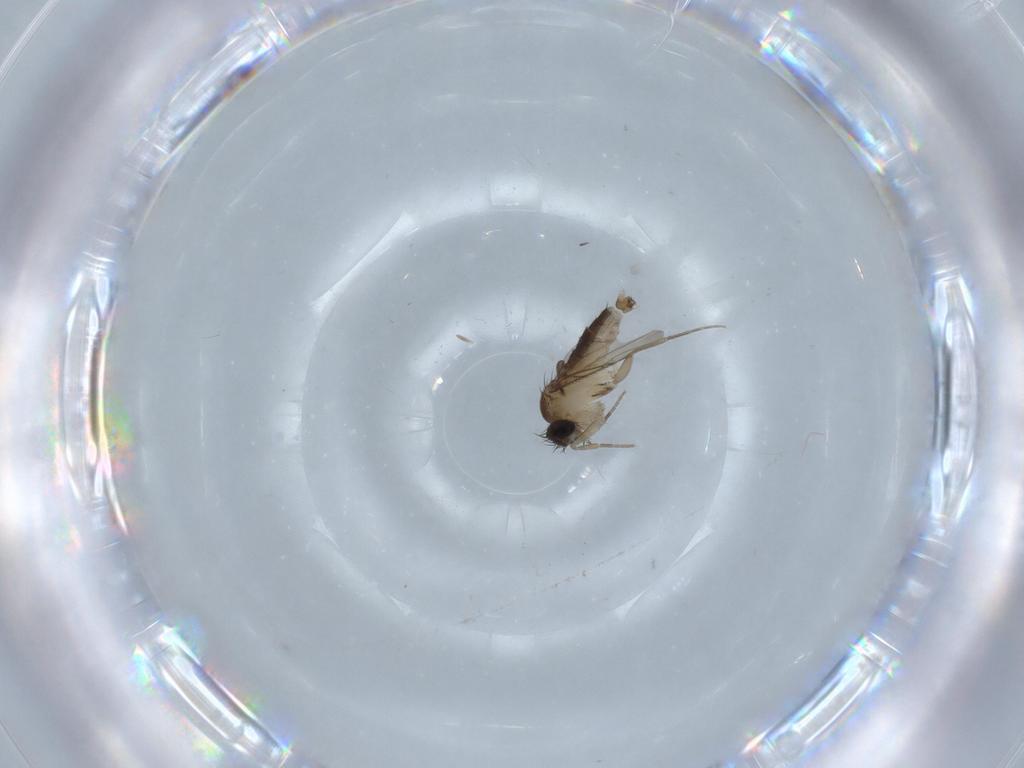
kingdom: Animalia
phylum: Arthropoda
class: Insecta
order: Diptera
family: Phoridae
